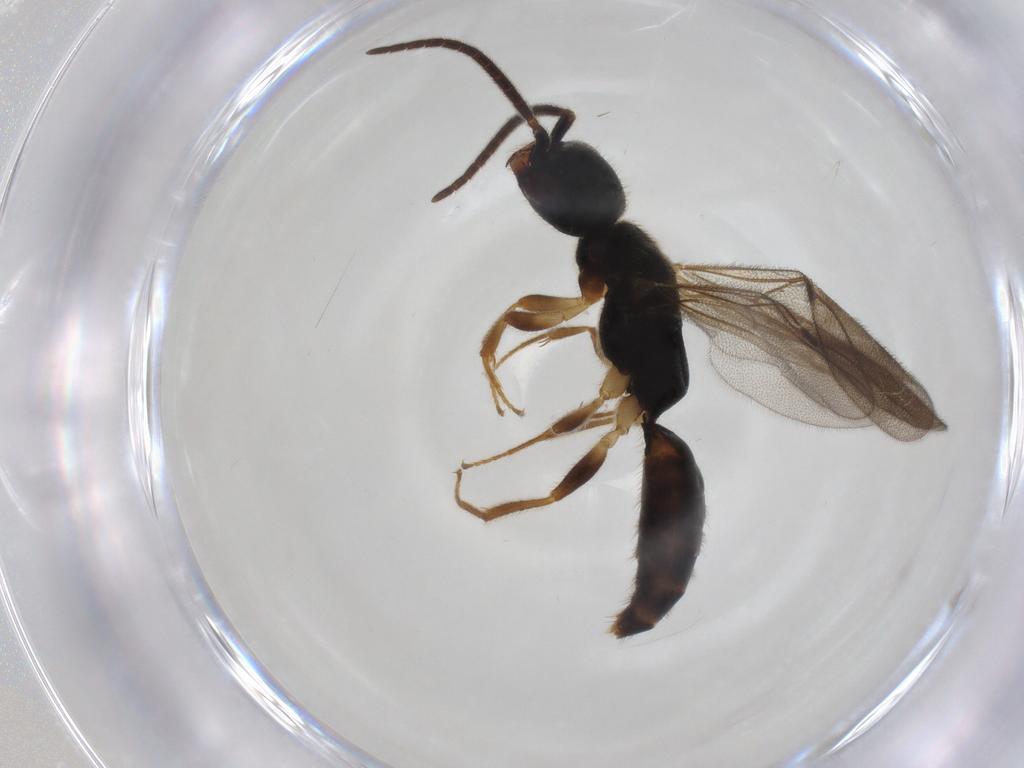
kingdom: Animalia
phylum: Arthropoda
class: Insecta
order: Hymenoptera
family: Bethylidae
